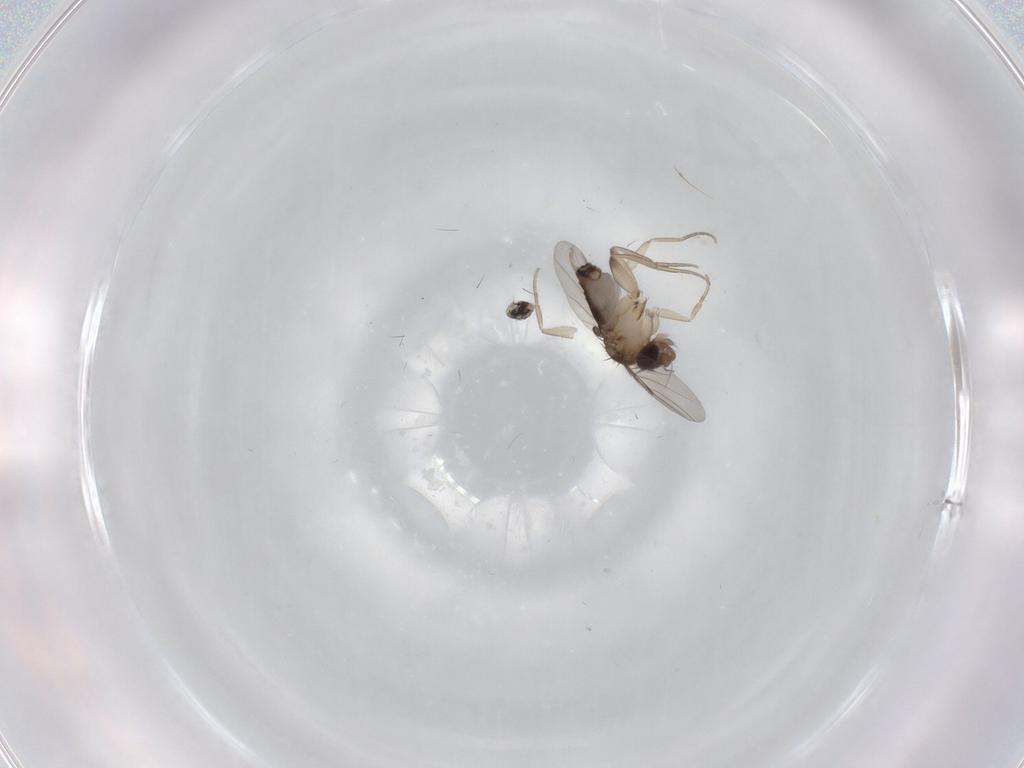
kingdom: Animalia
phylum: Arthropoda
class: Insecta
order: Diptera
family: Phoridae
